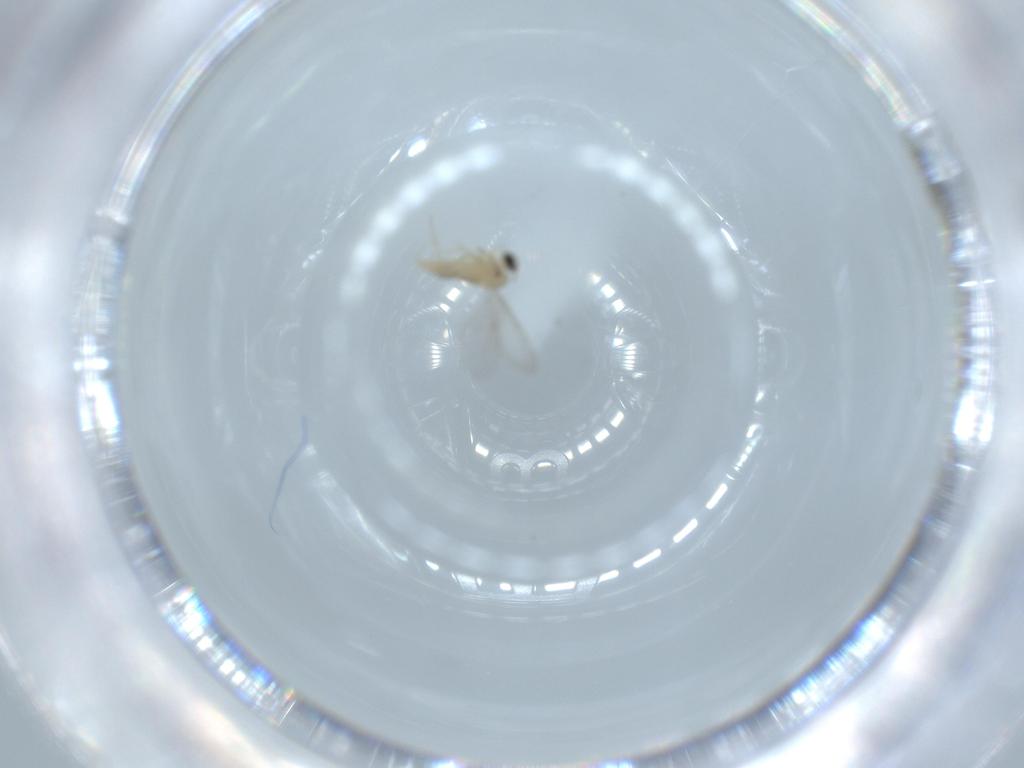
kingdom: Animalia
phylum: Arthropoda
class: Insecta
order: Diptera
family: Cecidomyiidae
